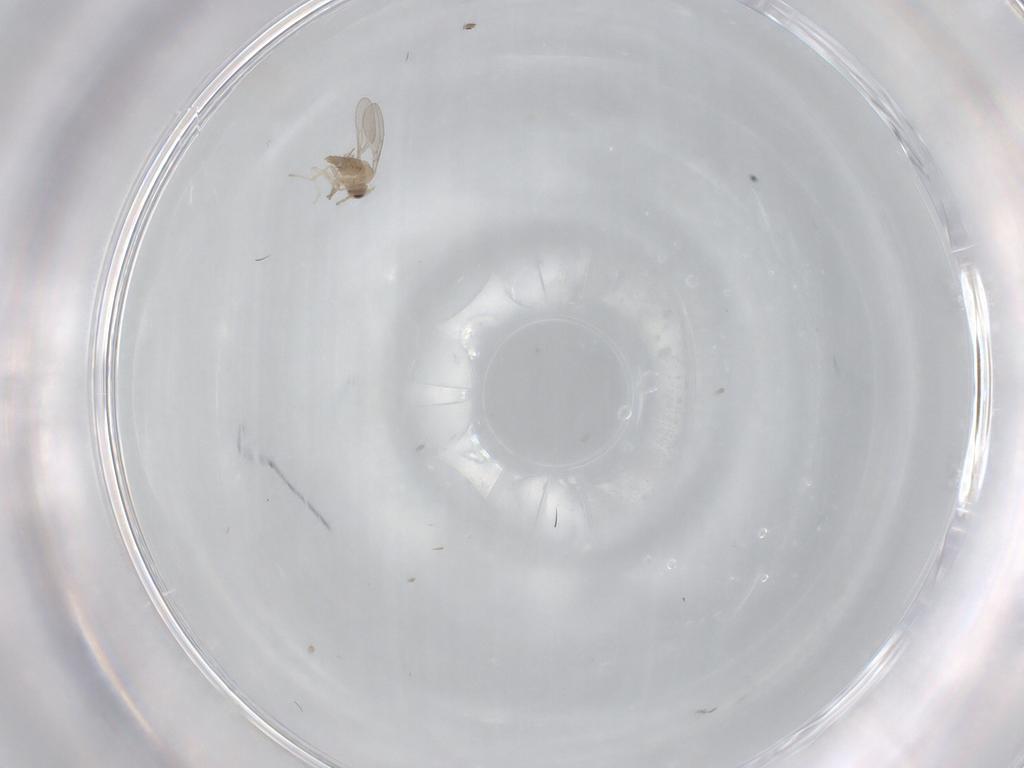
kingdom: Animalia
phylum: Arthropoda
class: Insecta
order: Diptera
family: Cecidomyiidae
